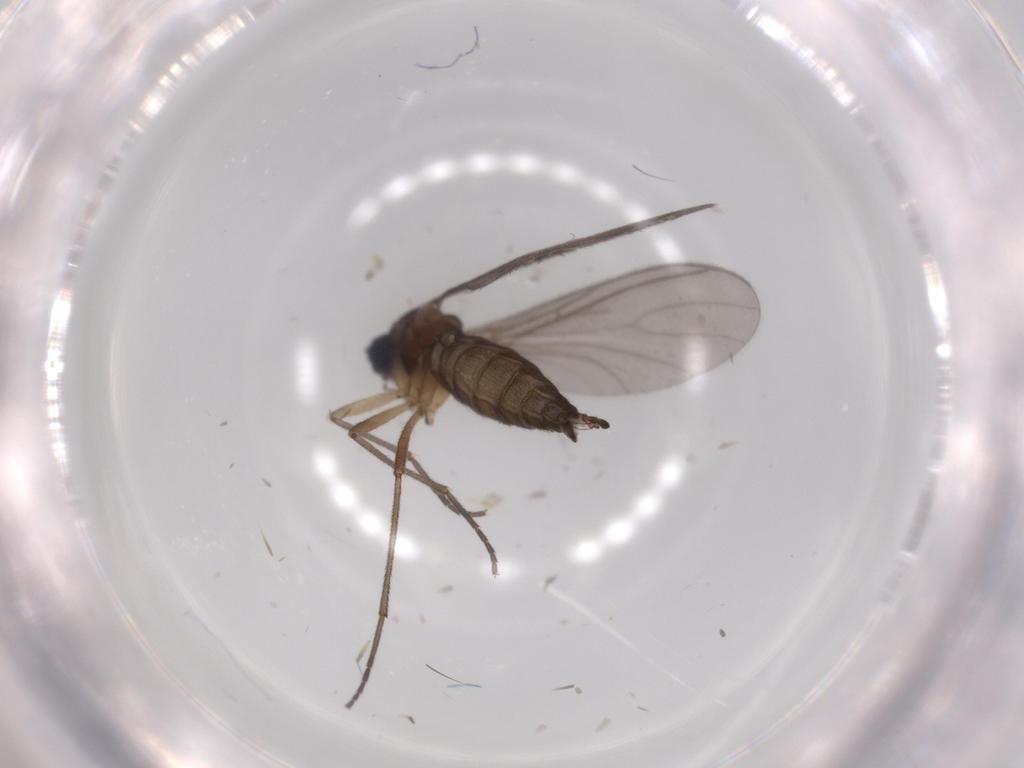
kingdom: Animalia
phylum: Arthropoda
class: Insecta
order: Diptera
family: Sciaridae
